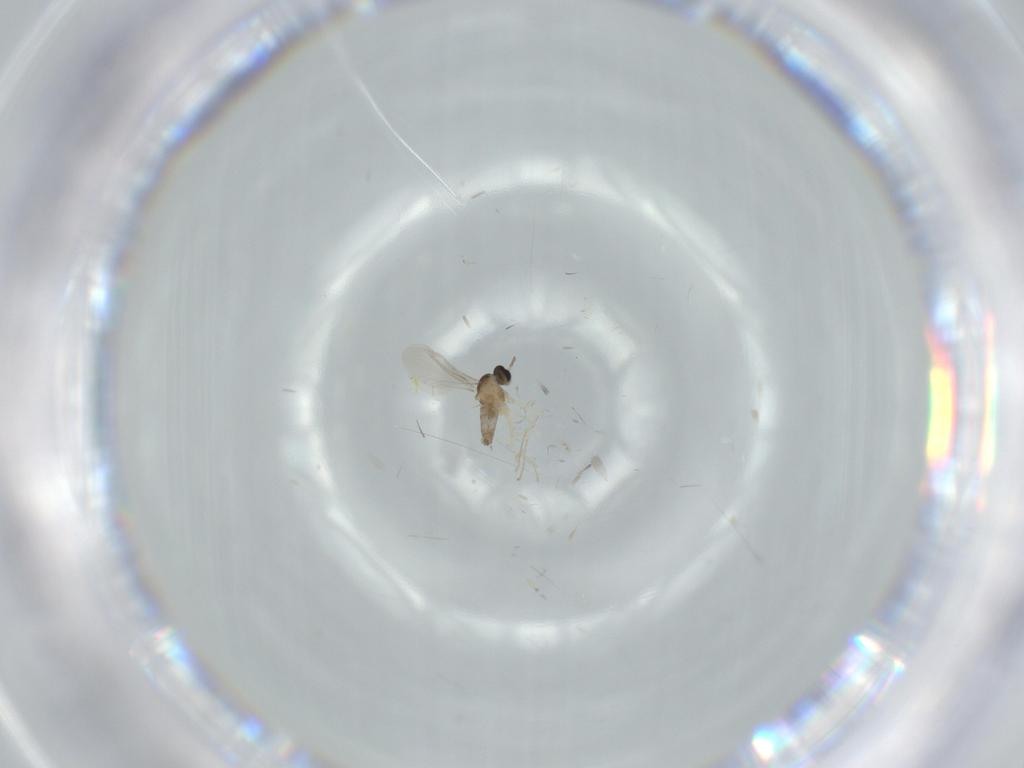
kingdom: Animalia
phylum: Arthropoda
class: Insecta
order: Diptera
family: Cecidomyiidae
